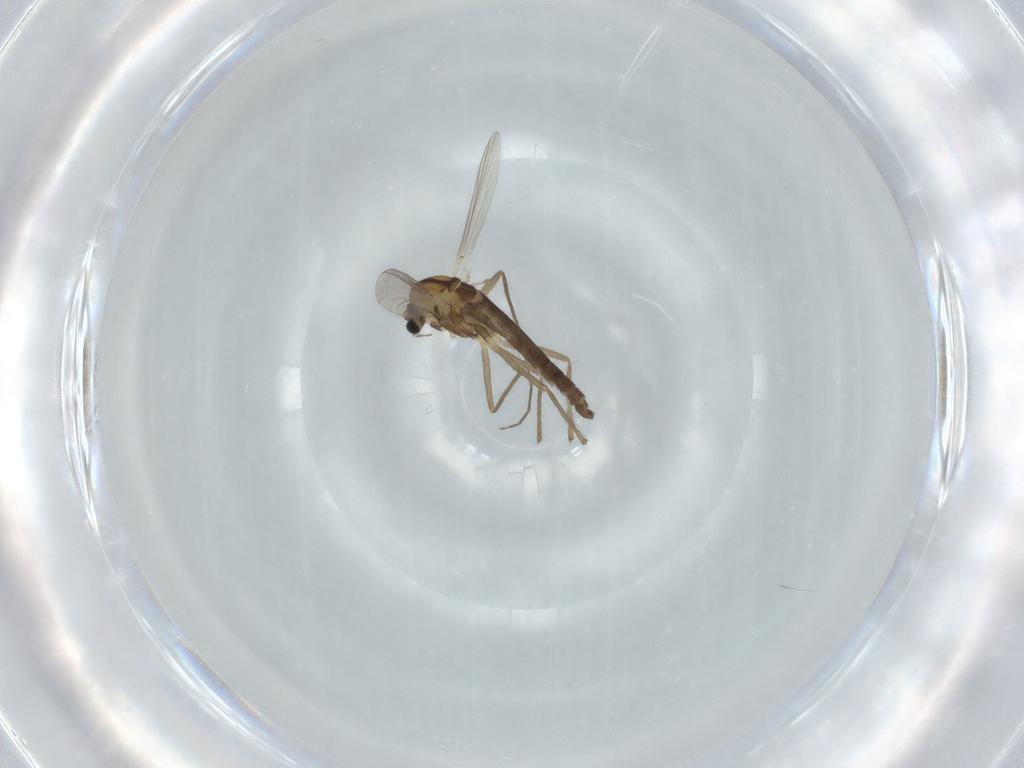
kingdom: Animalia
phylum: Arthropoda
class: Insecta
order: Diptera
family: Chironomidae
